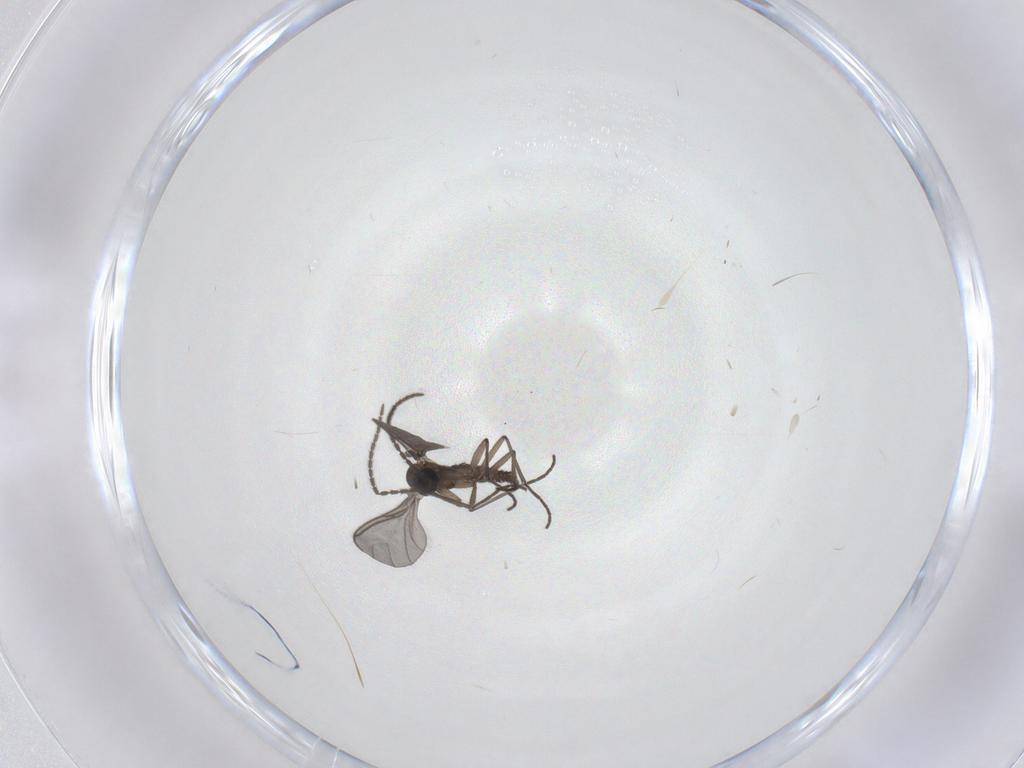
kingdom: Animalia
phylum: Arthropoda
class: Insecta
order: Diptera
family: Sciaridae
